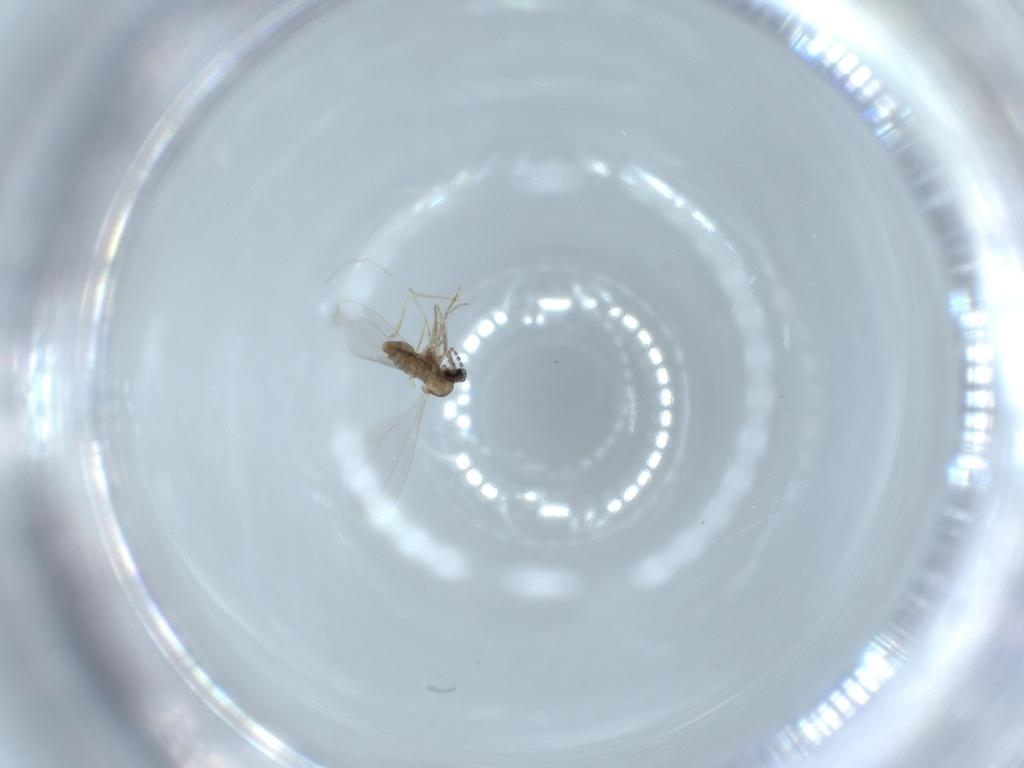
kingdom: Animalia
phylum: Arthropoda
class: Insecta
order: Diptera
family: Cecidomyiidae
